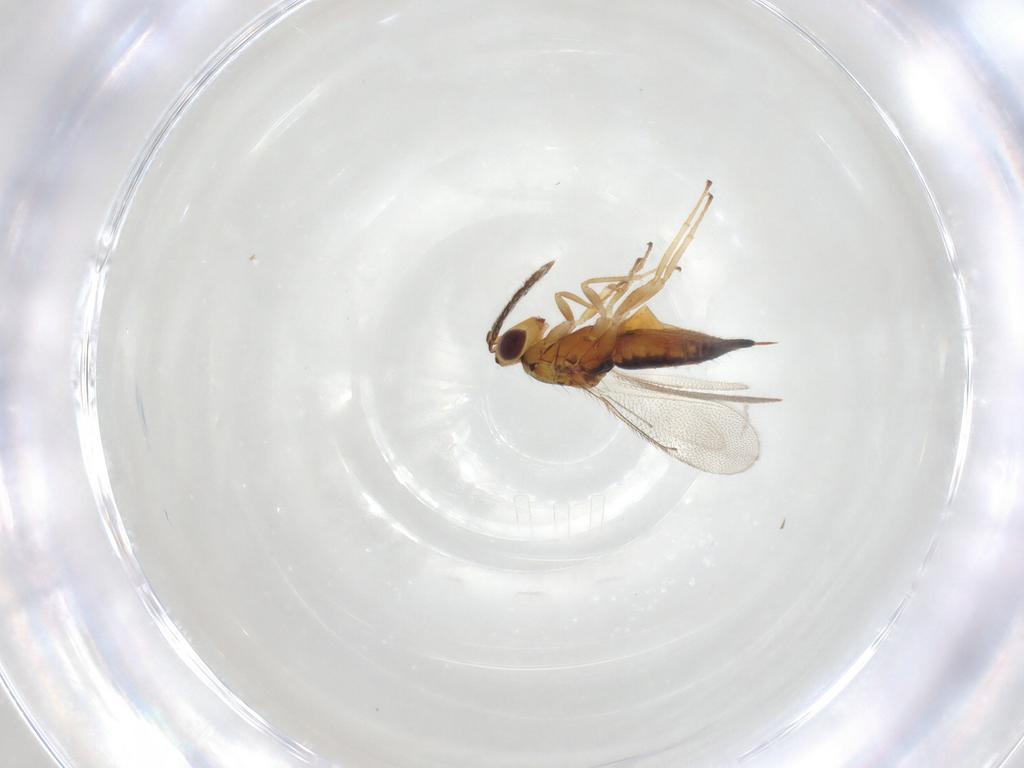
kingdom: Animalia
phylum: Arthropoda
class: Insecta
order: Hymenoptera
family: Eulophidae
